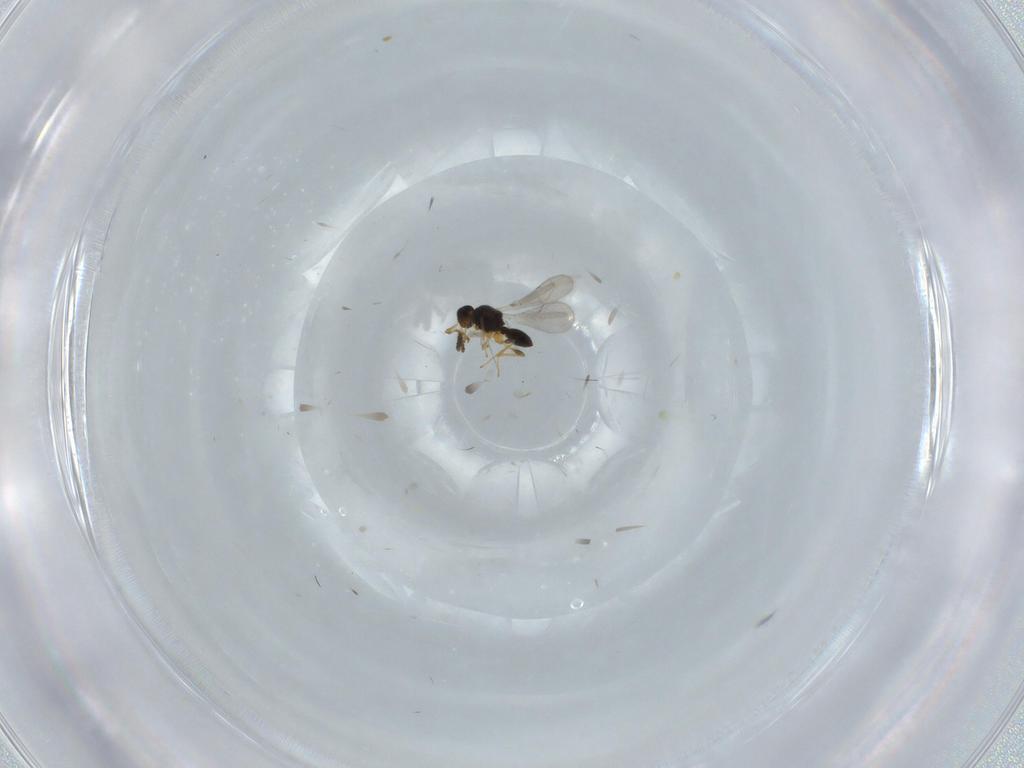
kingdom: Animalia
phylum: Arthropoda
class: Insecta
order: Hymenoptera
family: Platygastridae
